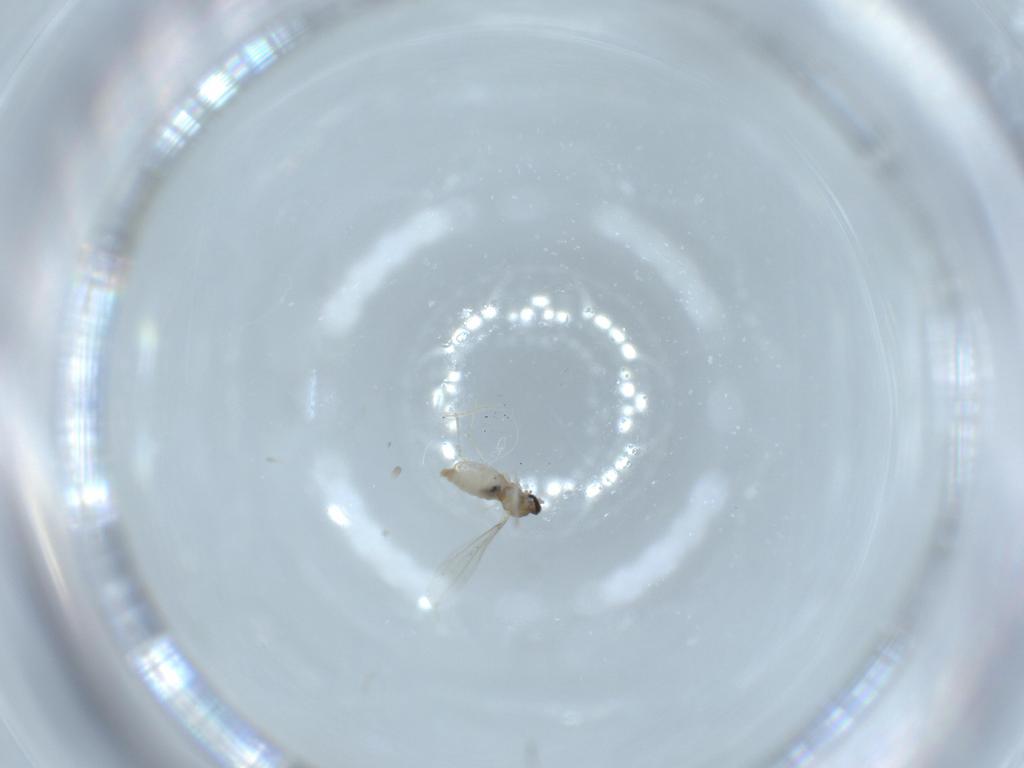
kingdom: Animalia
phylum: Arthropoda
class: Insecta
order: Diptera
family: Cecidomyiidae
